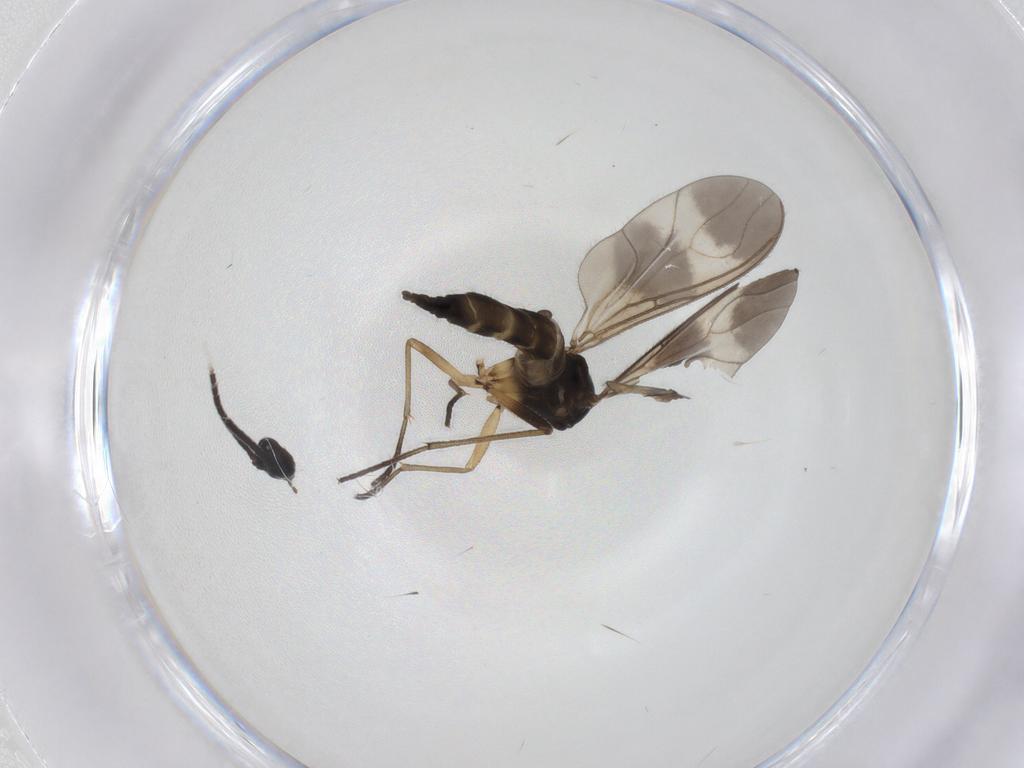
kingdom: Animalia
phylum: Arthropoda
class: Insecta
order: Diptera
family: Sciaridae
